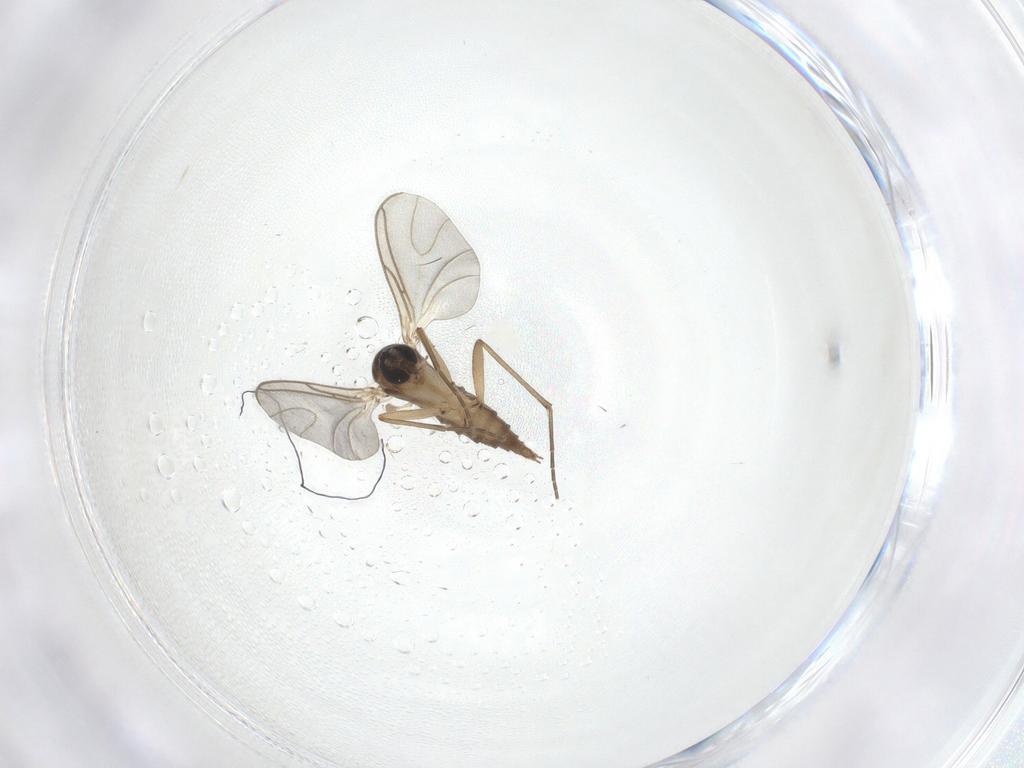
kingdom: Animalia
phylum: Arthropoda
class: Insecta
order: Diptera
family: Sciaridae
